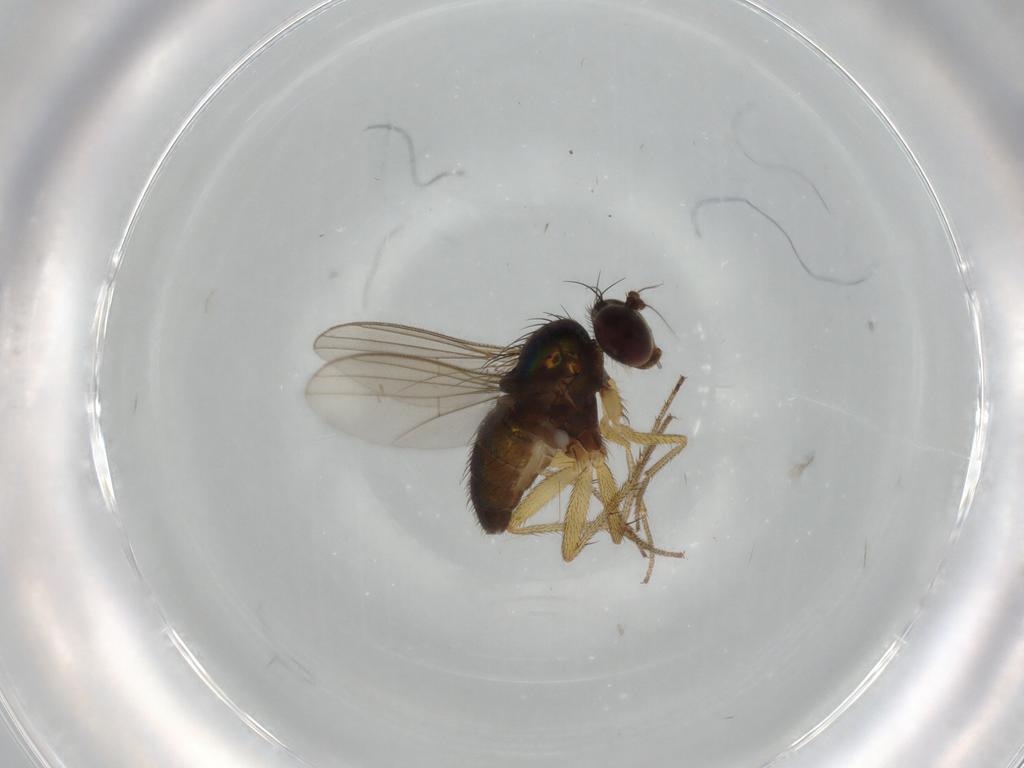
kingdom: Animalia
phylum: Arthropoda
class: Insecta
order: Diptera
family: Dolichopodidae
